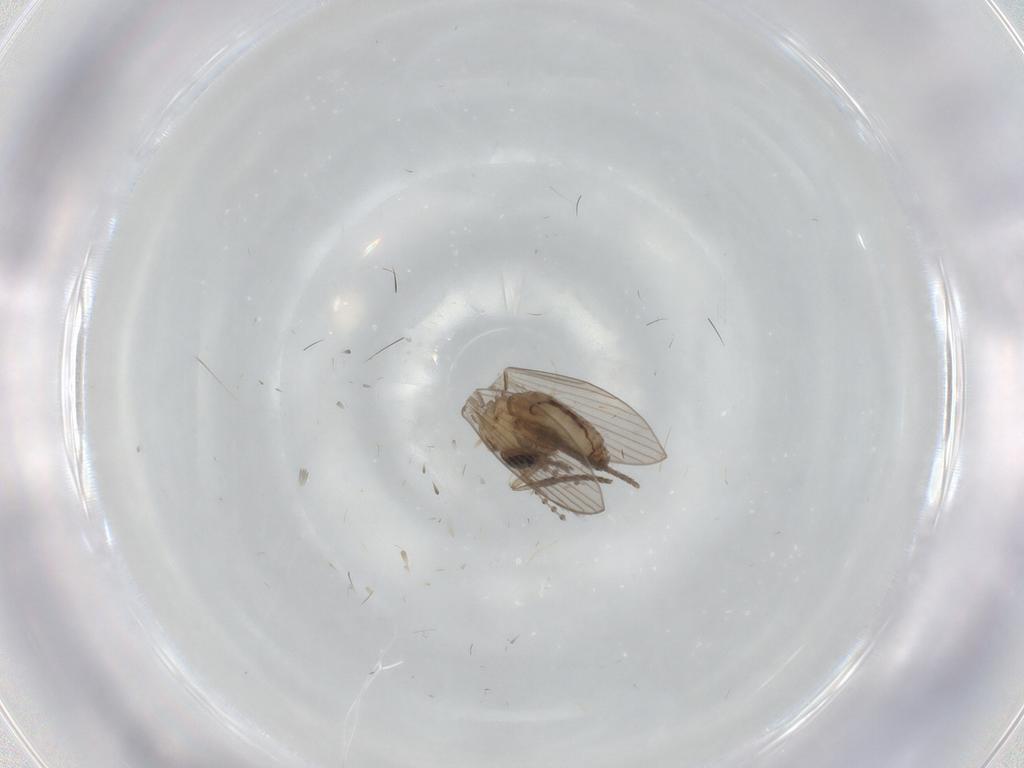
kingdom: Animalia
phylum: Arthropoda
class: Insecta
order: Diptera
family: Psychodidae
